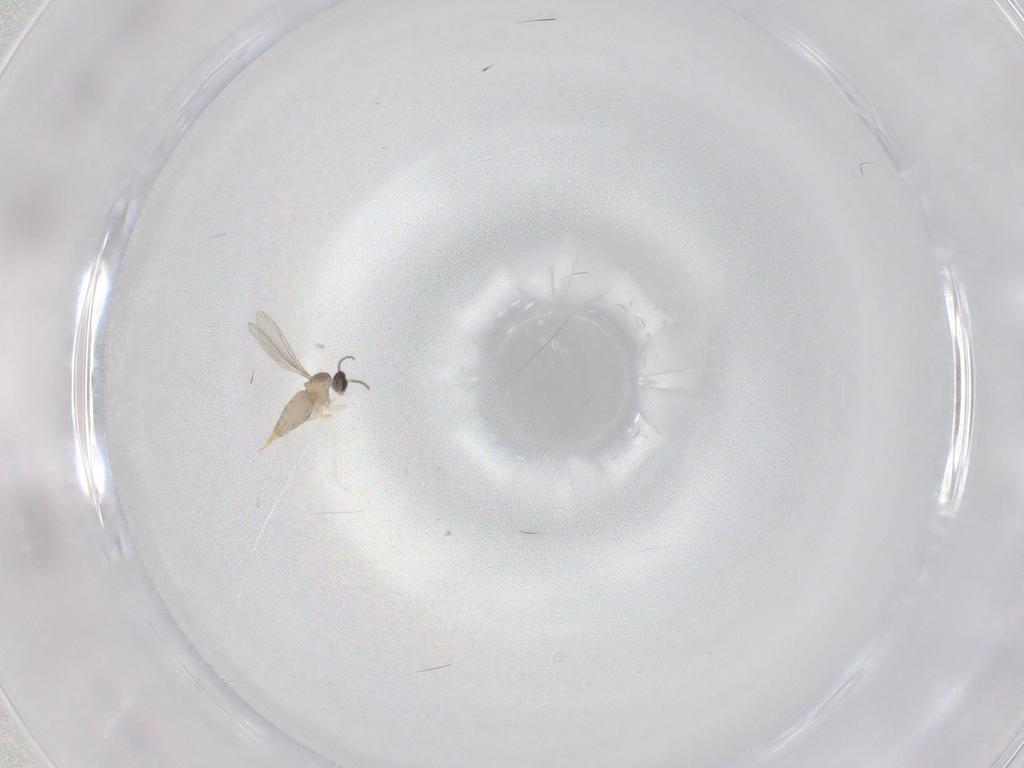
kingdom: Animalia
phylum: Arthropoda
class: Insecta
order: Diptera
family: Cecidomyiidae
